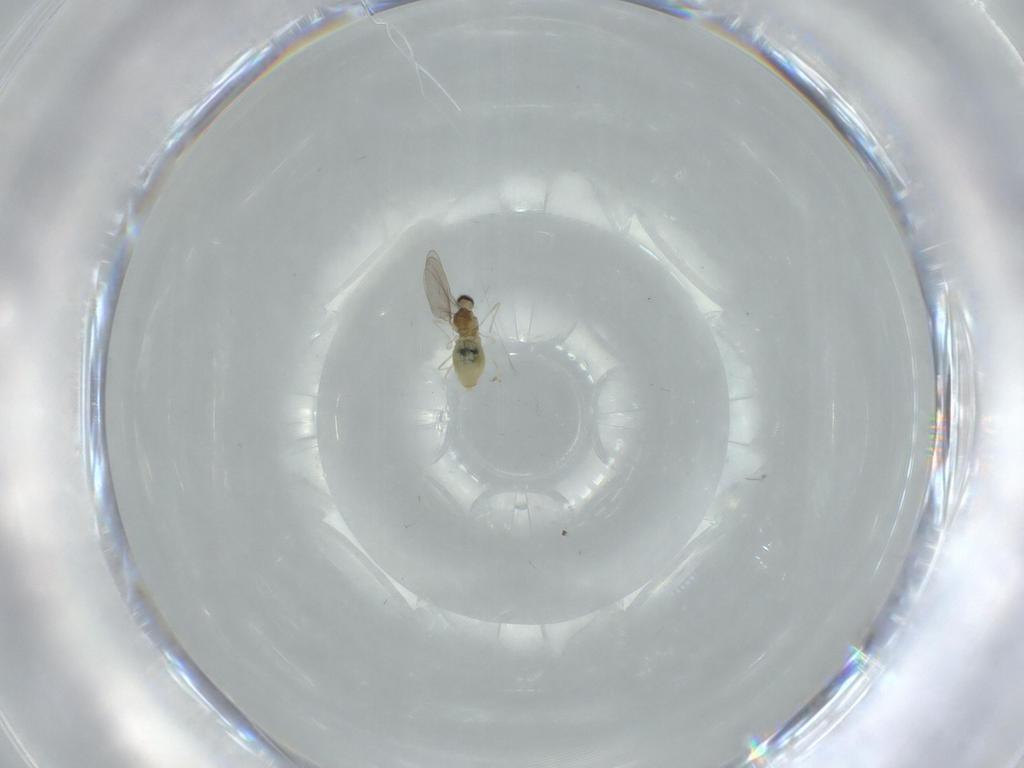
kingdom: Animalia
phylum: Arthropoda
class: Insecta
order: Diptera
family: Cecidomyiidae
